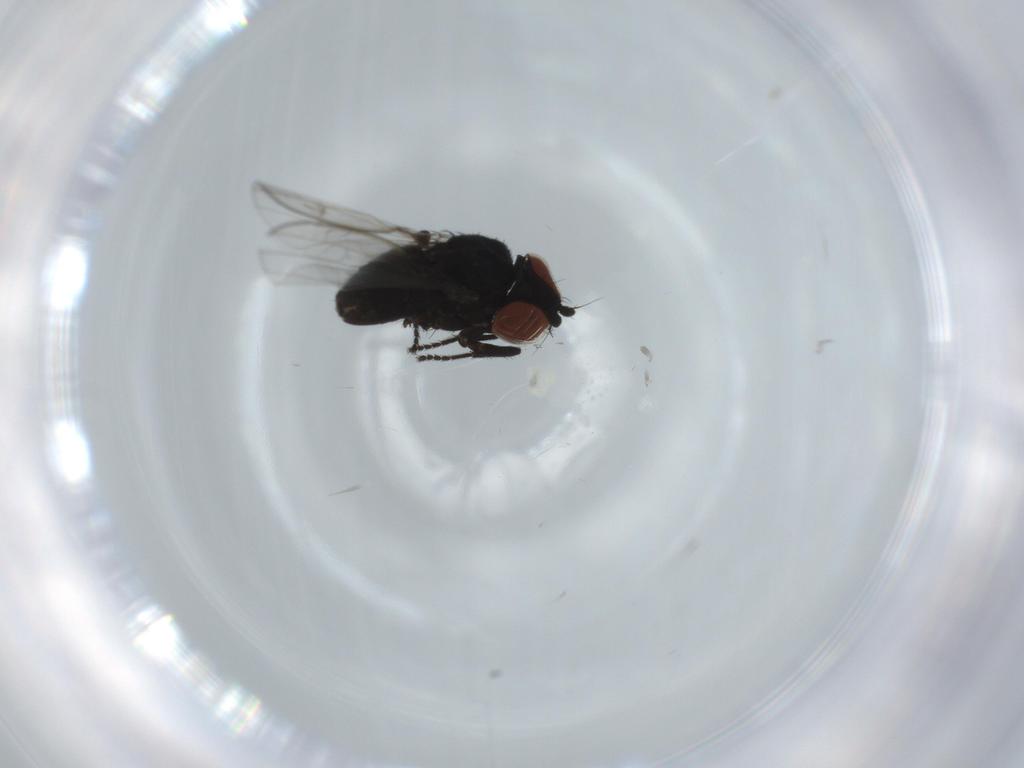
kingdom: Animalia
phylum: Arthropoda
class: Insecta
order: Diptera
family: Milichiidae
